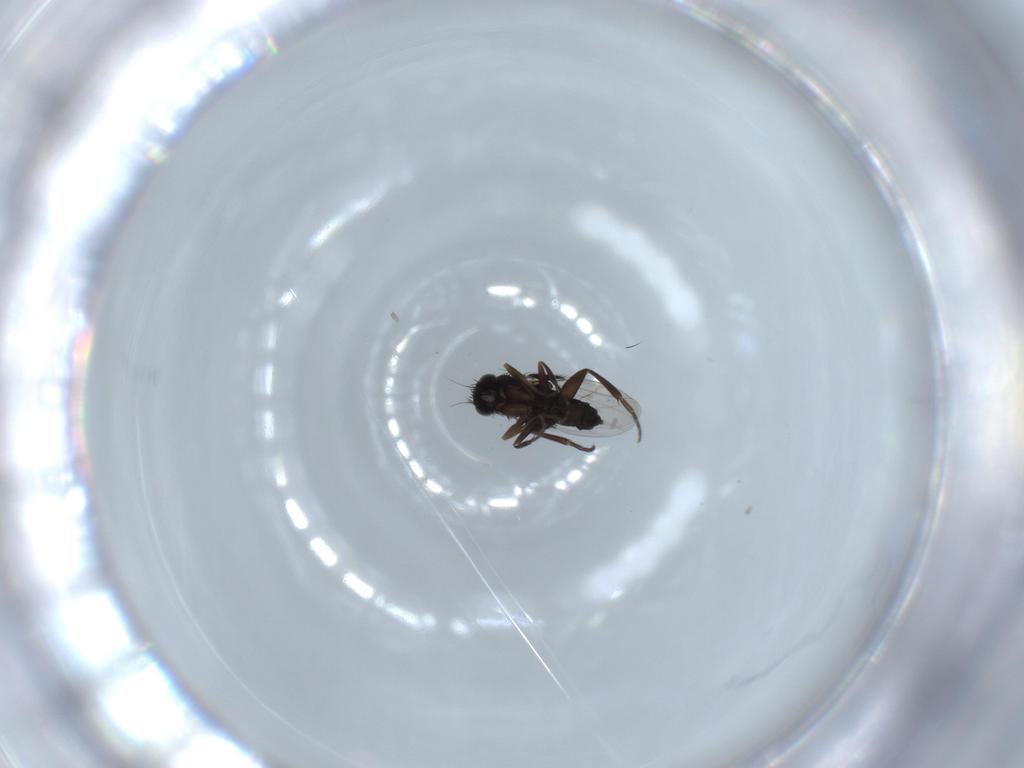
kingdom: Animalia
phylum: Arthropoda
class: Insecta
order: Diptera
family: Phoridae
